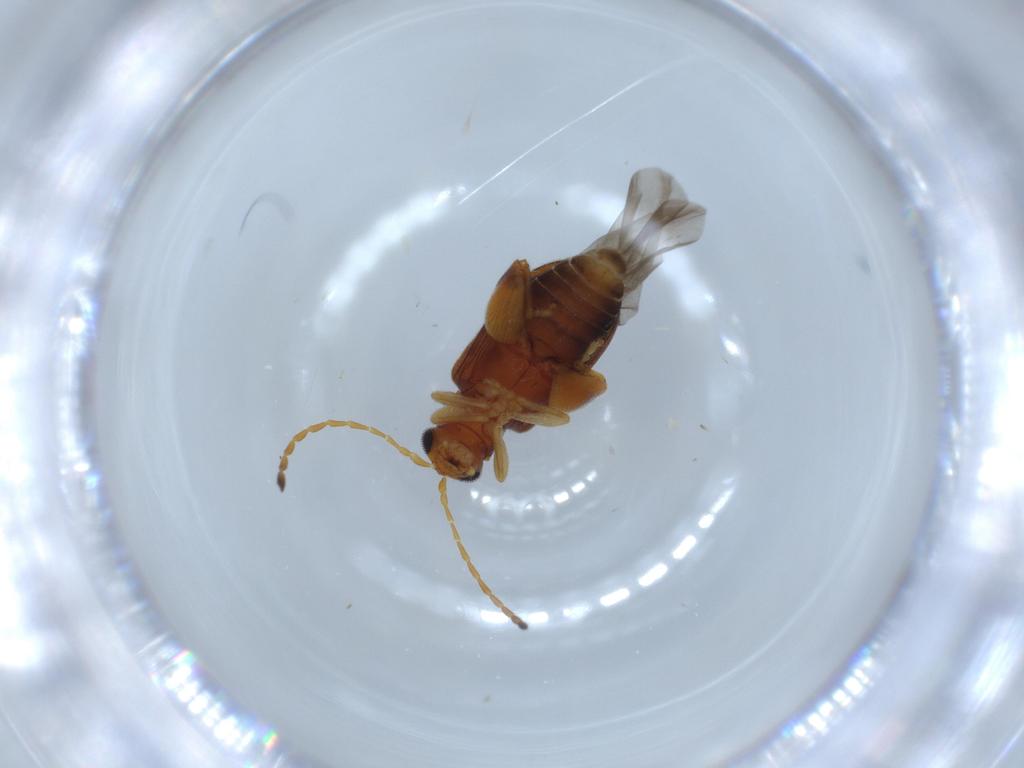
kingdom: Animalia
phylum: Arthropoda
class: Insecta
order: Coleoptera
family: Chrysomelidae
